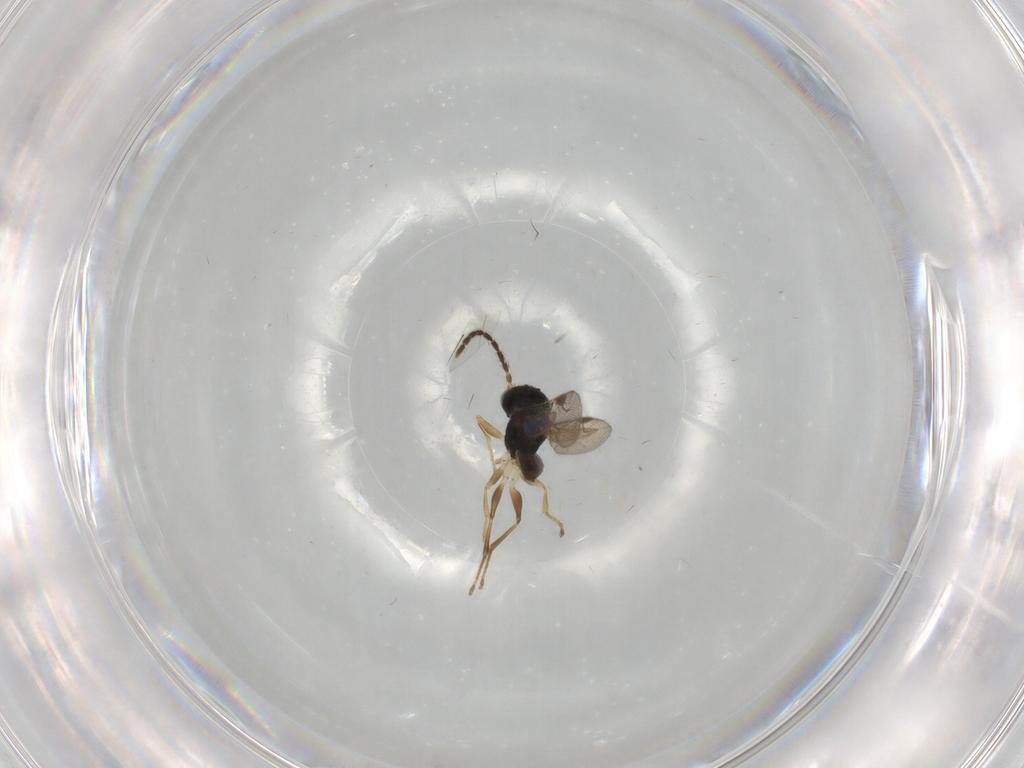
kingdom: Animalia
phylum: Arthropoda
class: Insecta
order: Hymenoptera
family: Dryinidae
